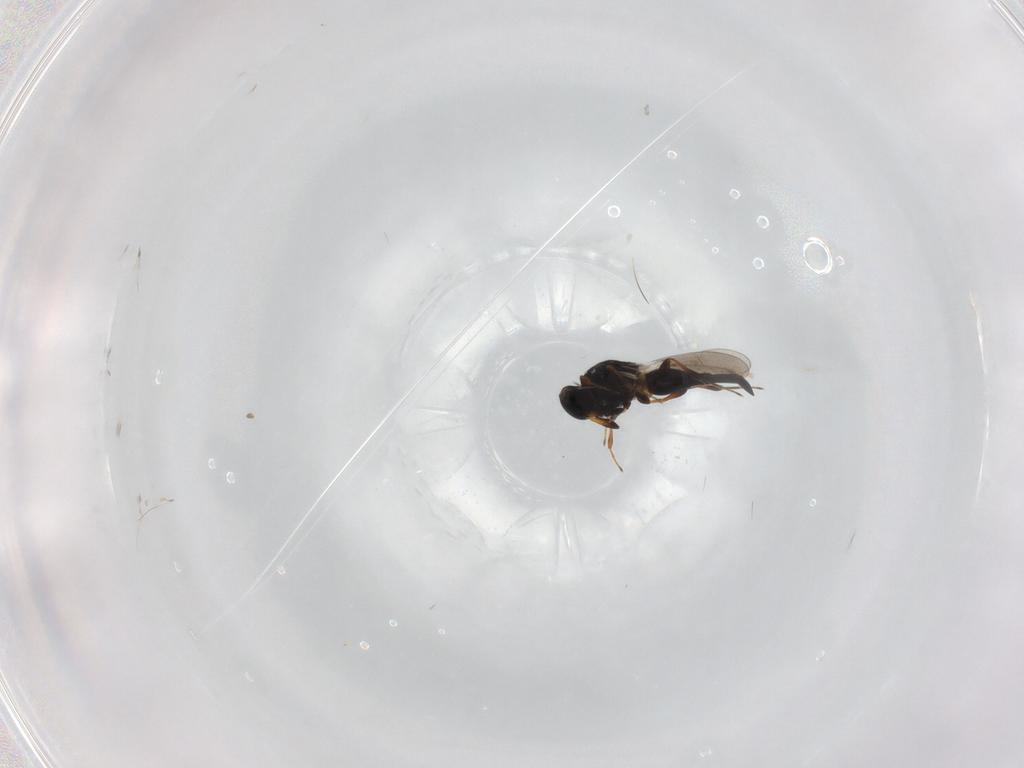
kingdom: Animalia
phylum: Arthropoda
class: Insecta
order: Hymenoptera
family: Platygastridae
